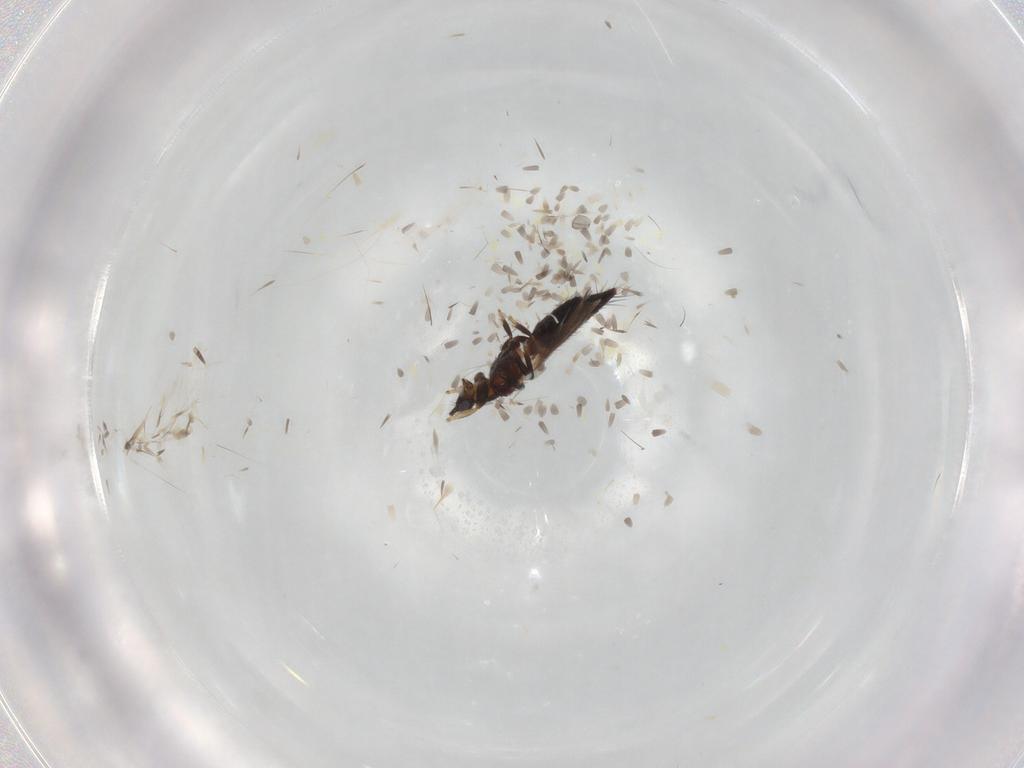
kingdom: Animalia
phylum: Arthropoda
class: Insecta
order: Thysanoptera
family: Thripidae
